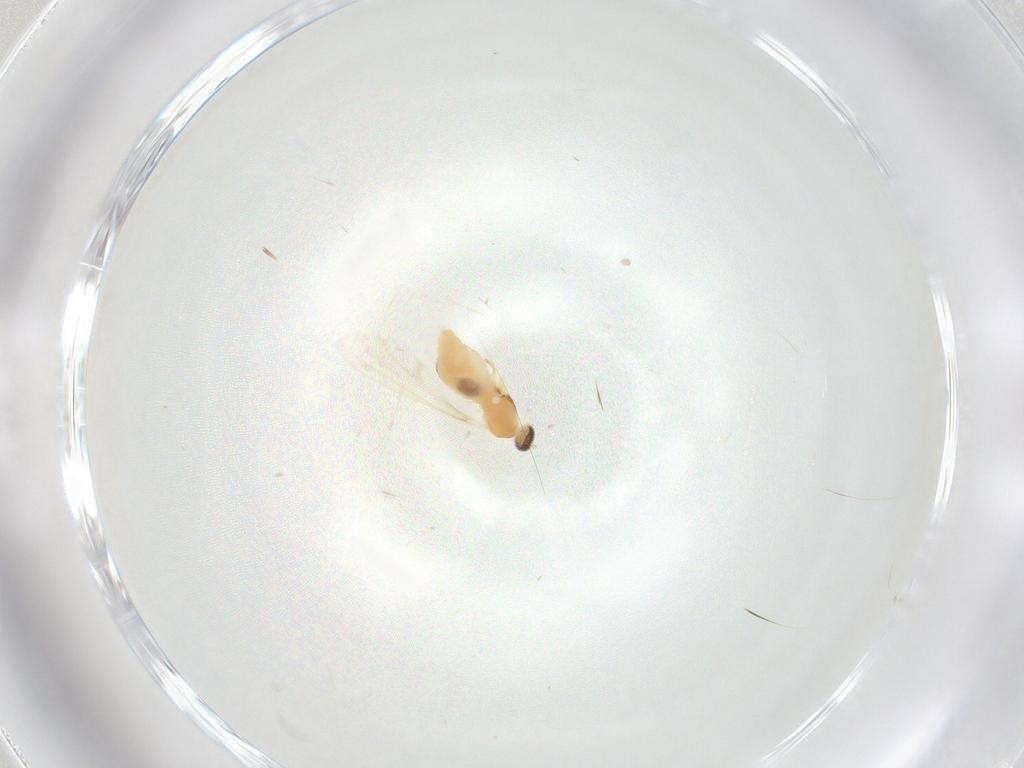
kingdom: Animalia
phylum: Arthropoda
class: Insecta
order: Diptera
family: Cecidomyiidae
